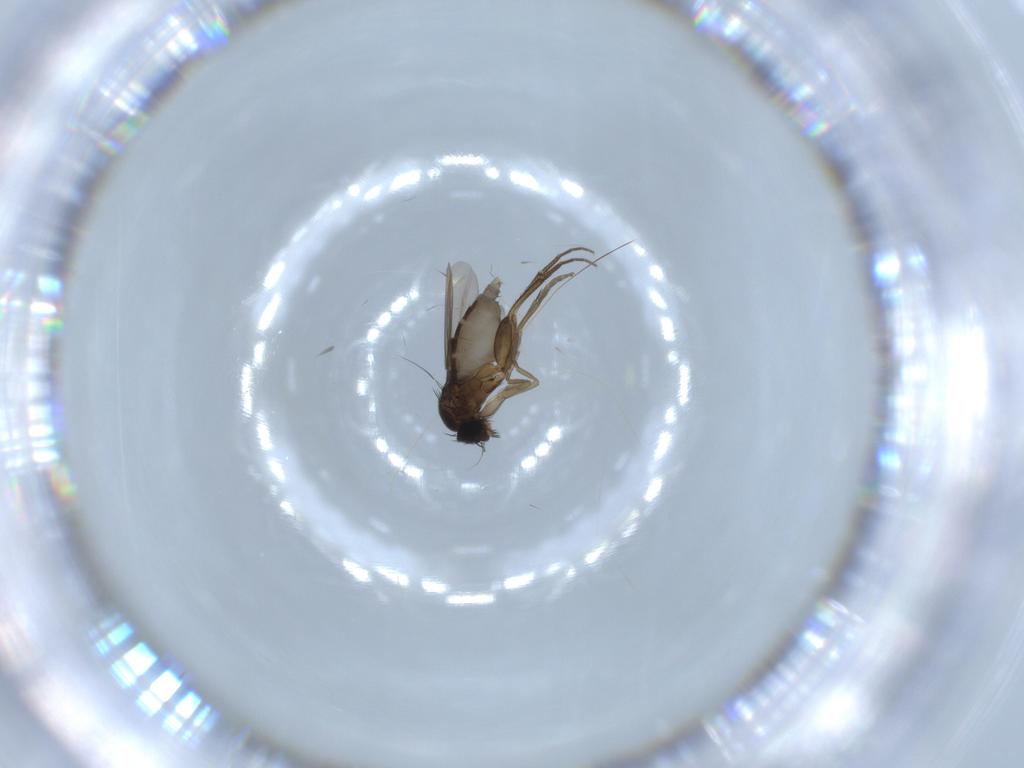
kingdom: Animalia
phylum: Arthropoda
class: Insecta
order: Diptera
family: Phoridae
